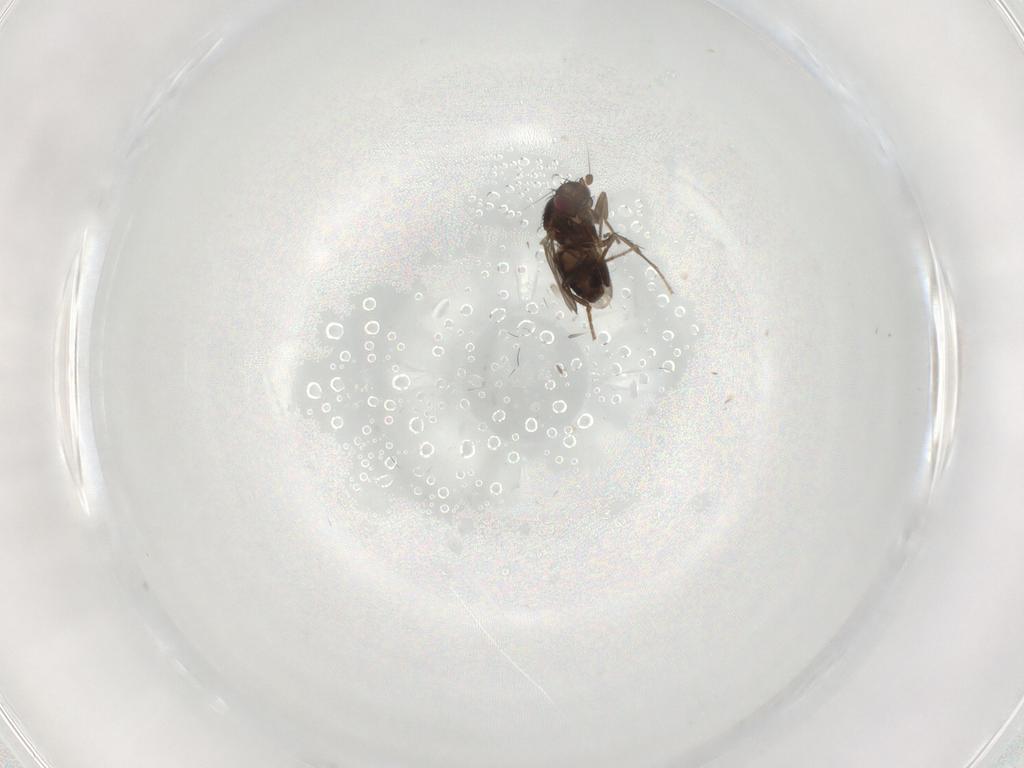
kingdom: Animalia
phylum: Arthropoda
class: Insecta
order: Diptera
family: Sphaeroceridae
